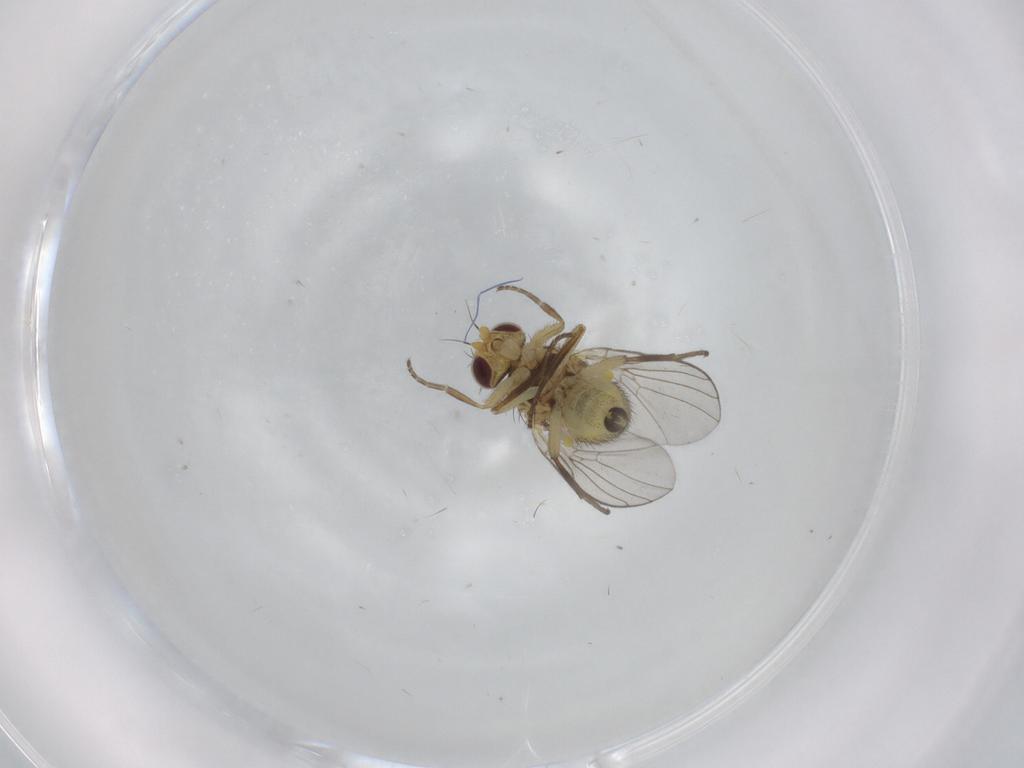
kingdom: Animalia
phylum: Arthropoda
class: Insecta
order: Diptera
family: Agromyzidae
